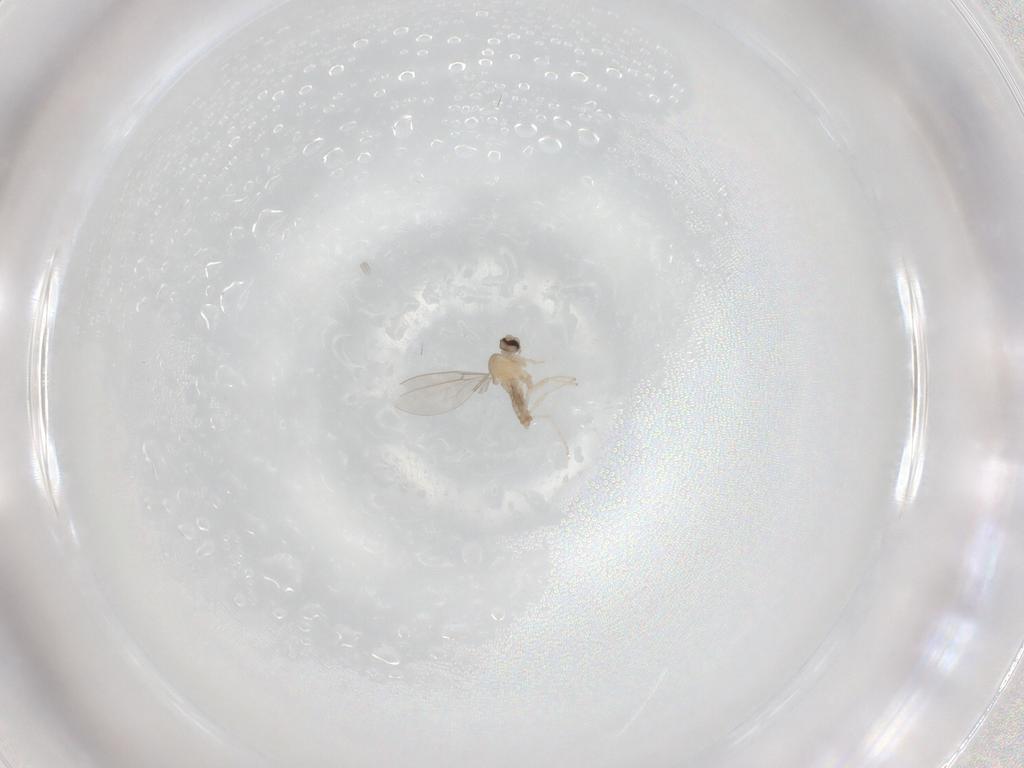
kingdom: Animalia
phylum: Arthropoda
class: Insecta
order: Diptera
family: Cecidomyiidae
